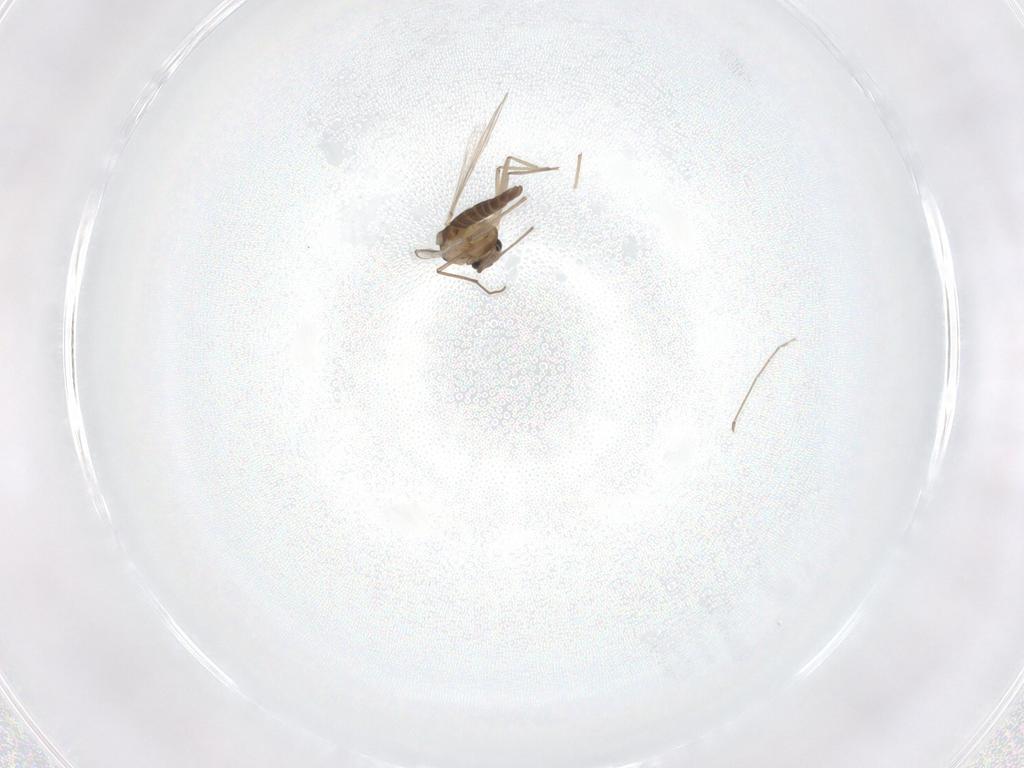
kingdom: Animalia
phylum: Arthropoda
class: Insecta
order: Diptera
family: Chironomidae
